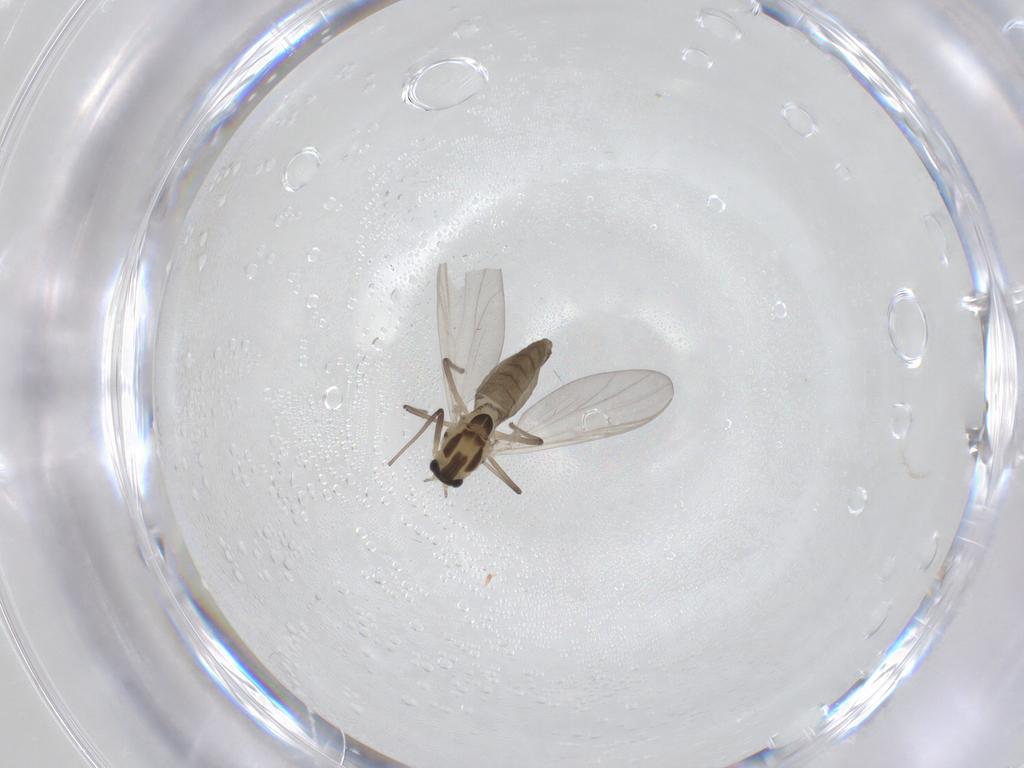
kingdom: Animalia
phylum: Arthropoda
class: Insecta
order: Diptera
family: Chironomidae
